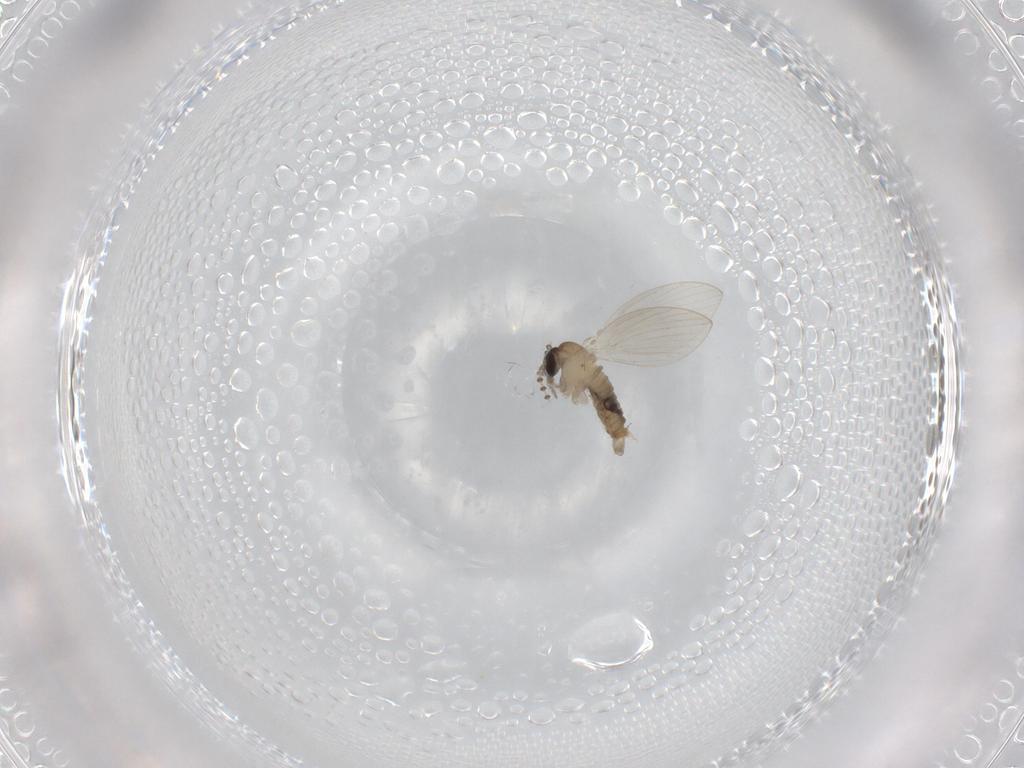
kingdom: Animalia
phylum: Arthropoda
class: Insecta
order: Diptera
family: Psychodidae
